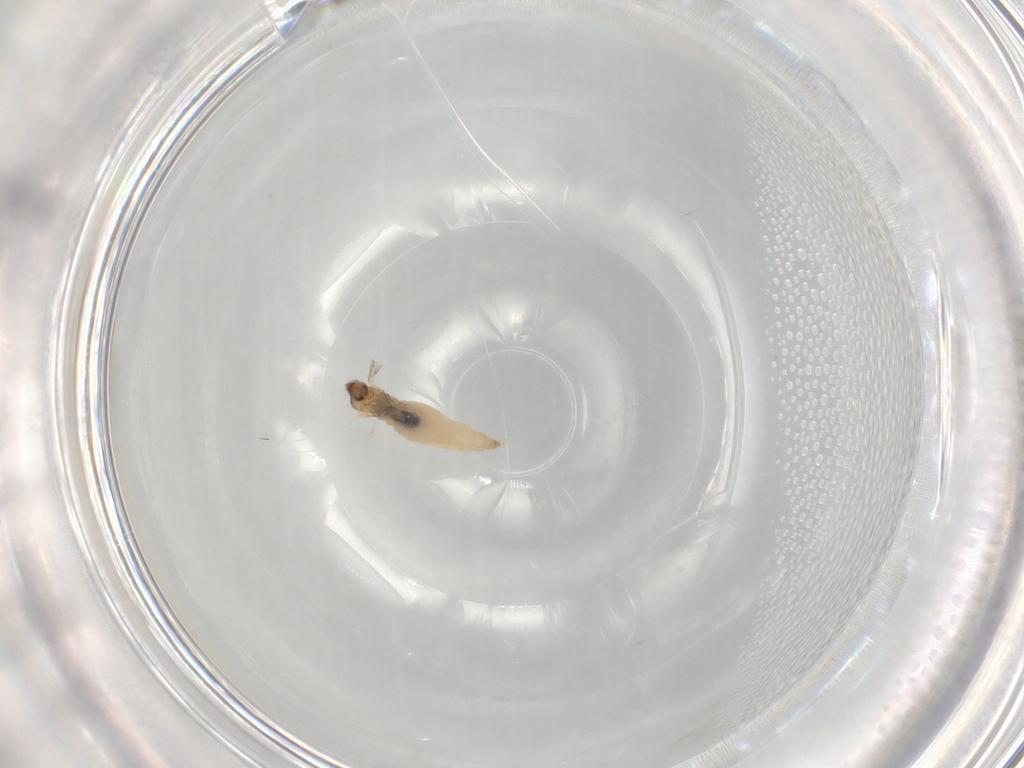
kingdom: Animalia
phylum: Arthropoda
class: Insecta
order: Diptera
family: Cecidomyiidae
